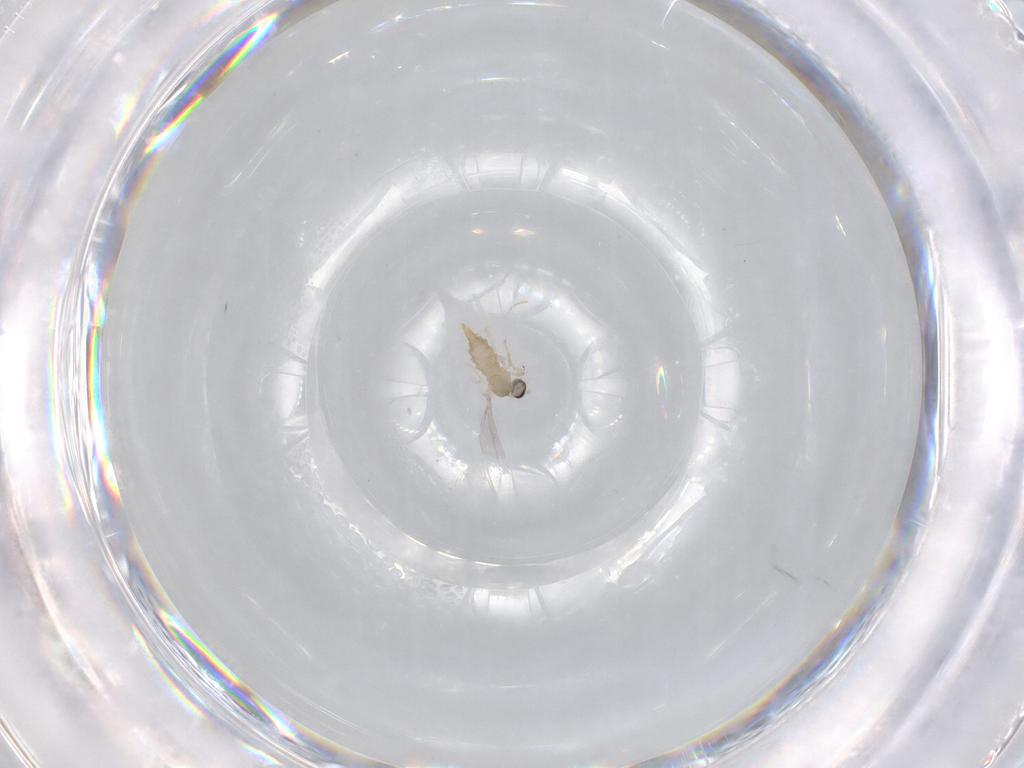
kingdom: Animalia
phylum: Arthropoda
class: Insecta
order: Diptera
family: Cecidomyiidae
